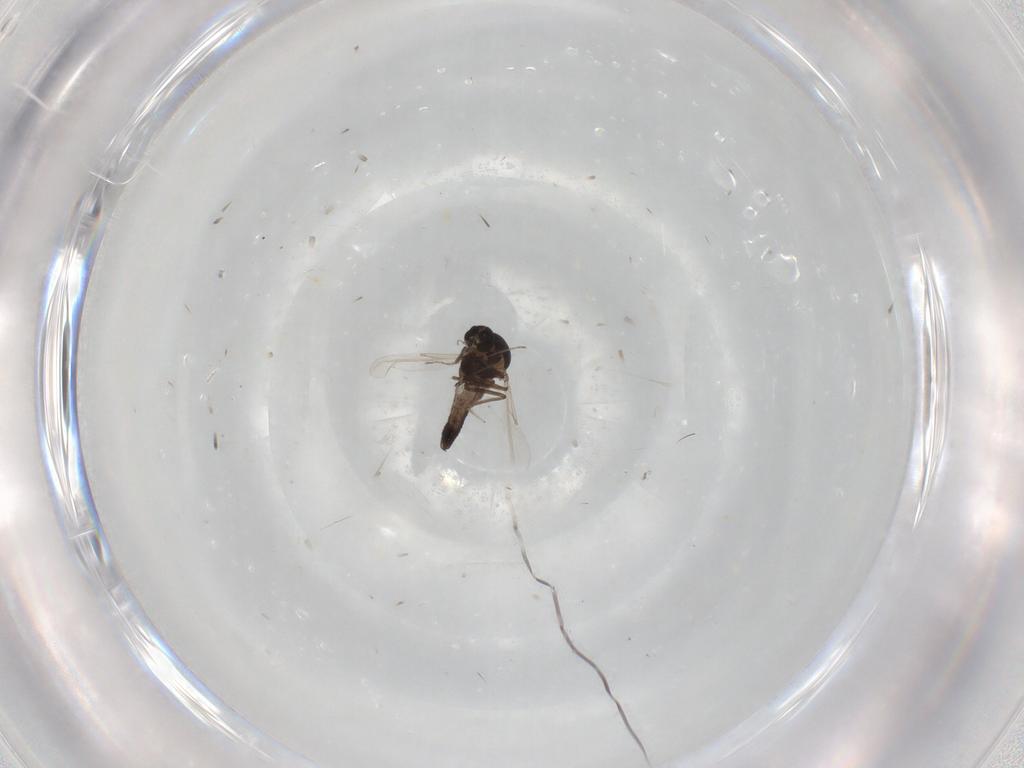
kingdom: Animalia
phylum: Arthropoda
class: Insecta
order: Diptera
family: Ceratopogonidae
